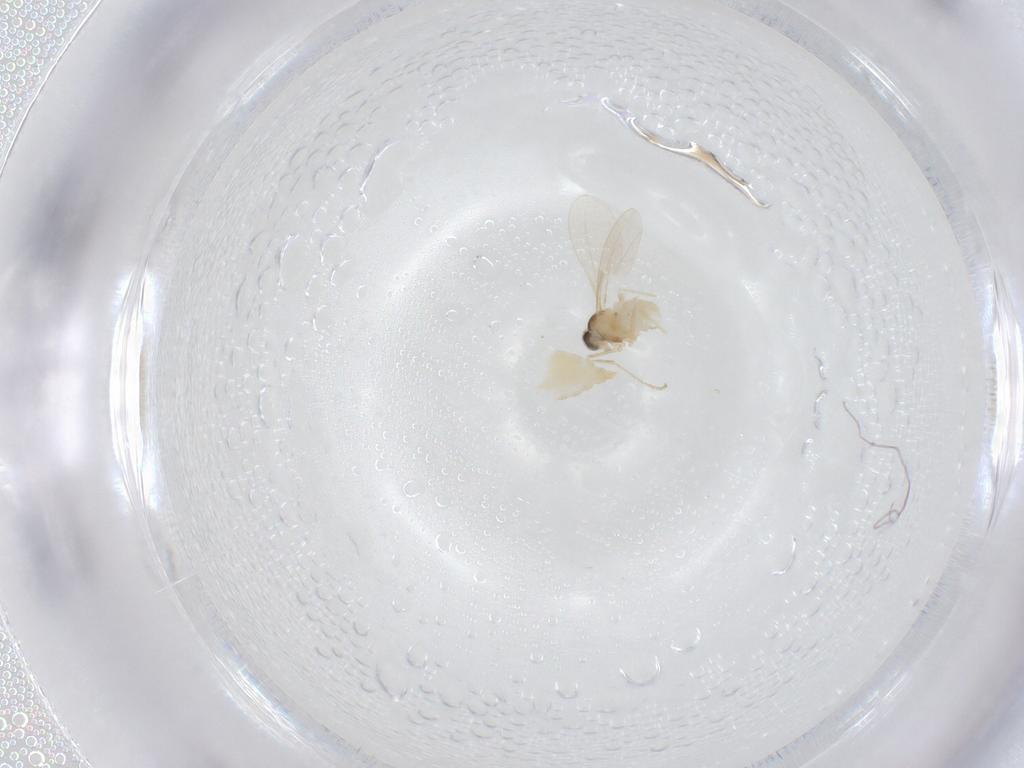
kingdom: Animalia
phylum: Arthropoda
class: Insecta
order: Diptera
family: Cecidomyiidae
